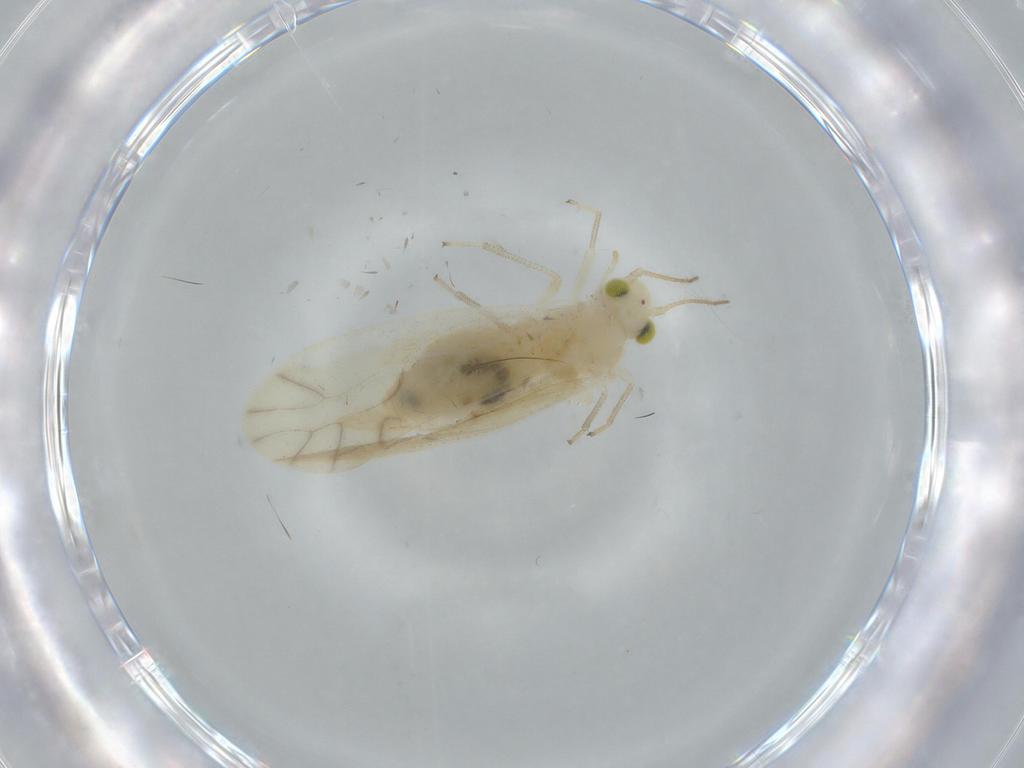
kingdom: Animalia
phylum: Arthropoda
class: Insecta
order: Psocodea
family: Caeciliusidae
